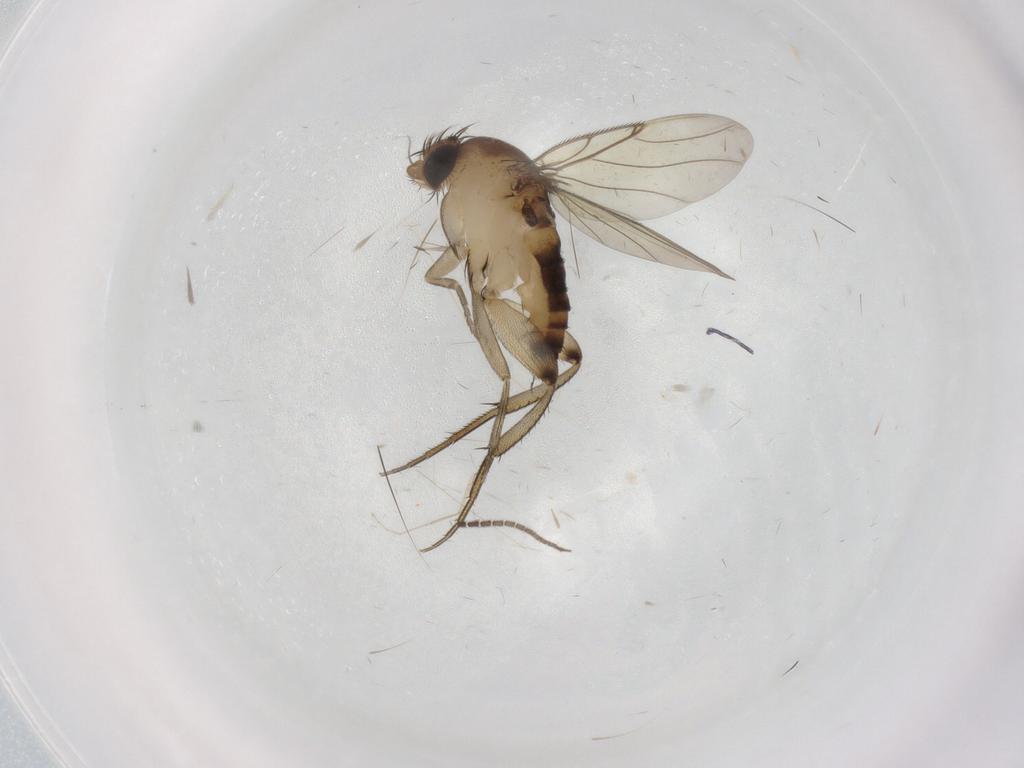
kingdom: Animalia
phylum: Arthropoda
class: Insecta
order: Diptera
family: Phoridae
